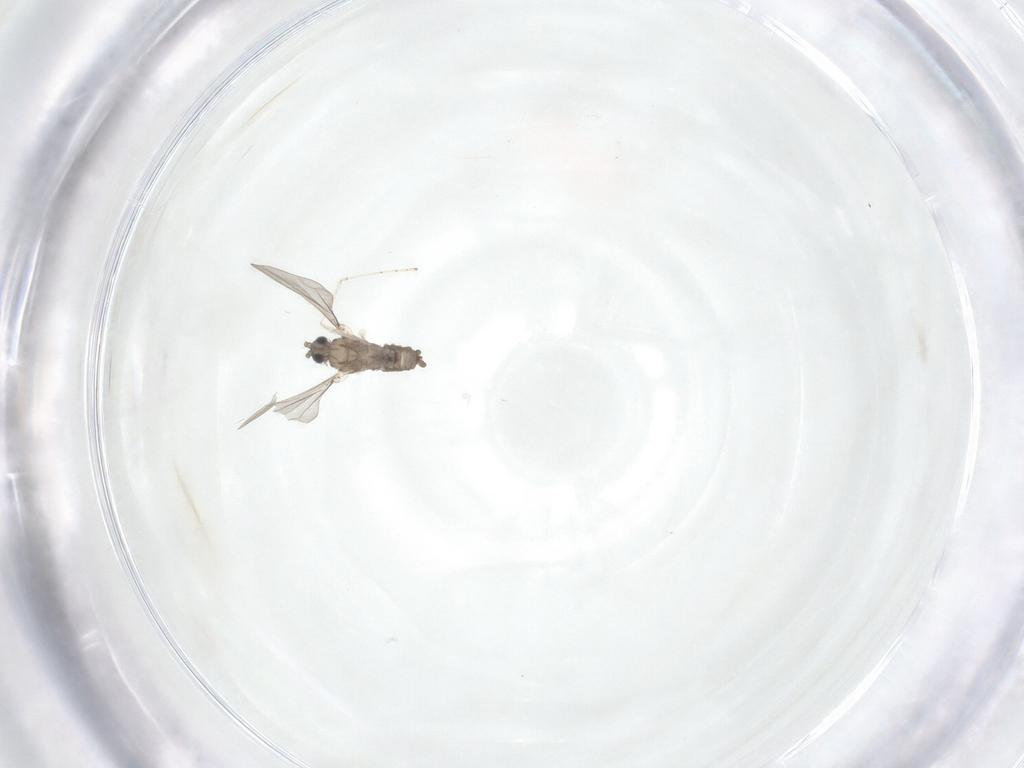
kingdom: Animalia
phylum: Arthropoda
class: Insecta
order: Diptera
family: Cecidomyiidae
